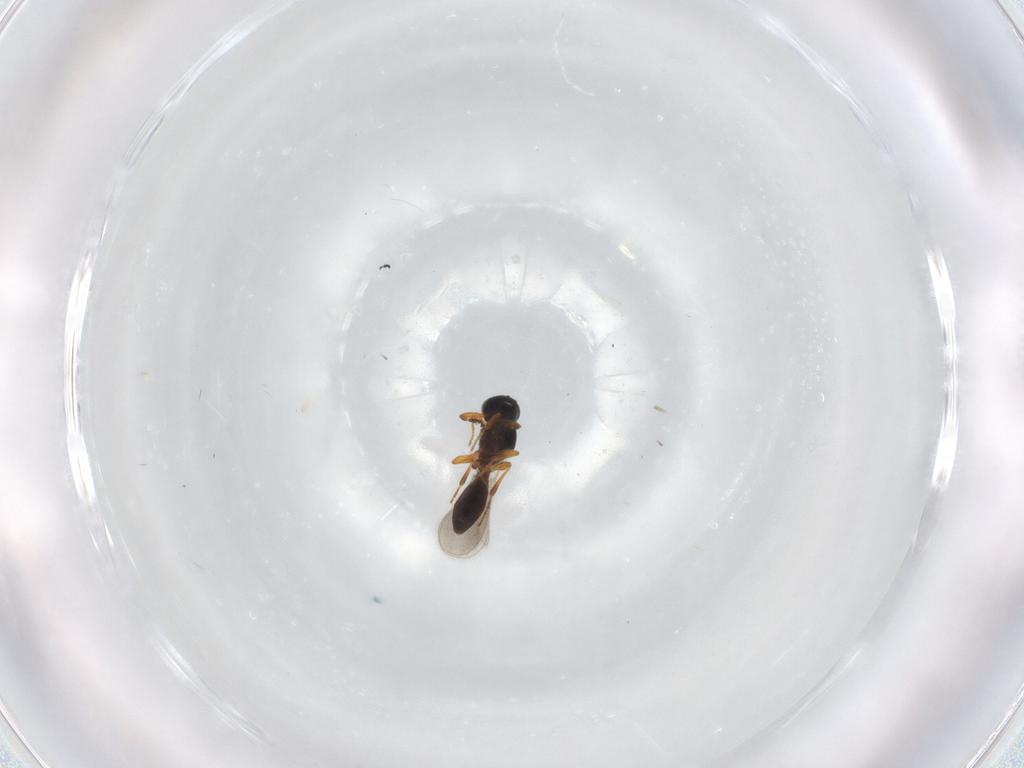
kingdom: Animalia
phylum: Arthropoda
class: Insecta
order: Hymenoptera
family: Platygastridae
